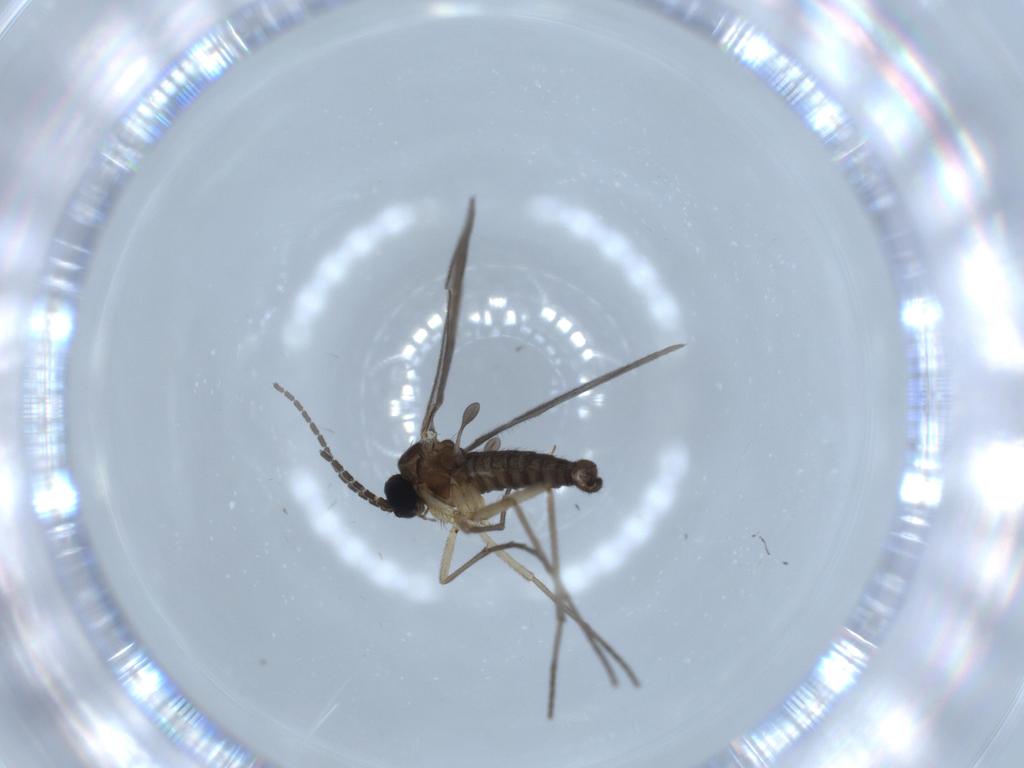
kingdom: Animalia
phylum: Arthropoda
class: Insecta
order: Diptera
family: Sciaridae
